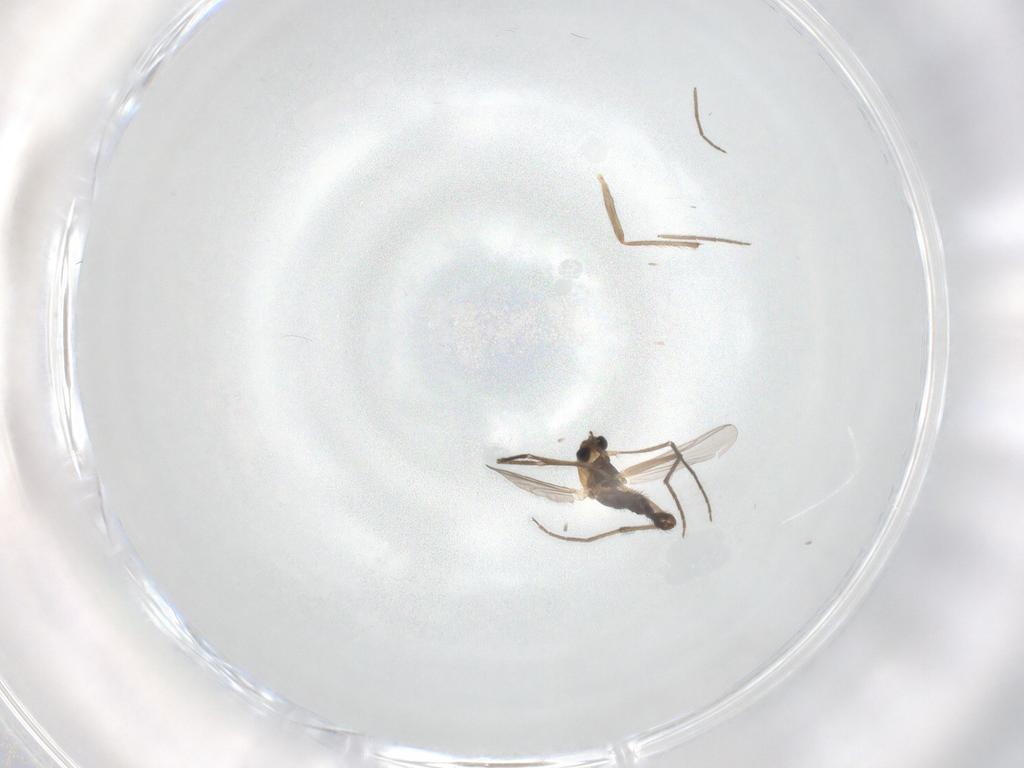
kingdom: Animalia
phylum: Arthropoda
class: Insecta
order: Diptera
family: Chironomidae
